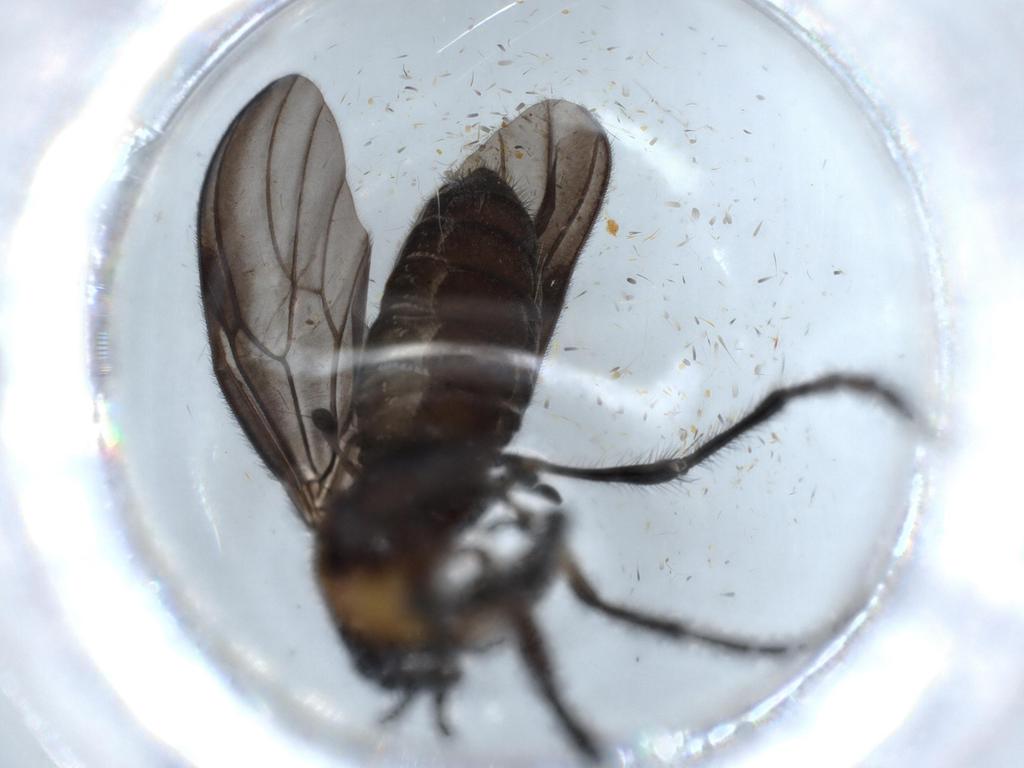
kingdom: Animalia
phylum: Arthropoda
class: Insecta
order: Diptera
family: Bibionidae
